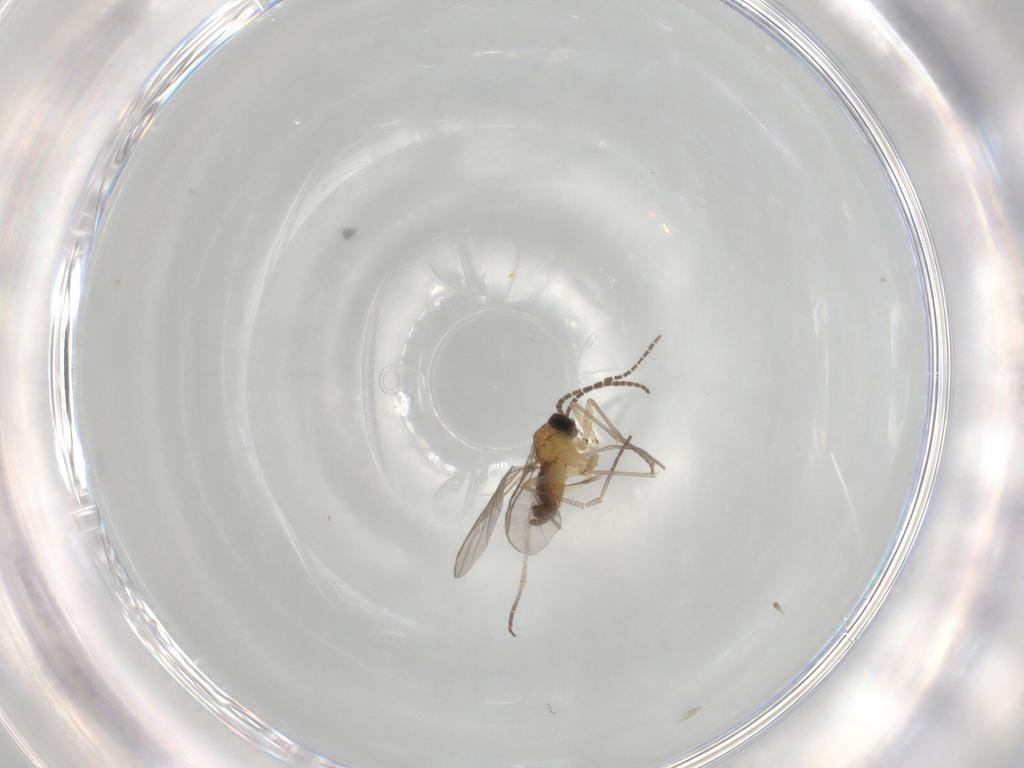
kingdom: Animalia
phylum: Arthropoda
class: Insecta
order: Diptera
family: Sciaridae
